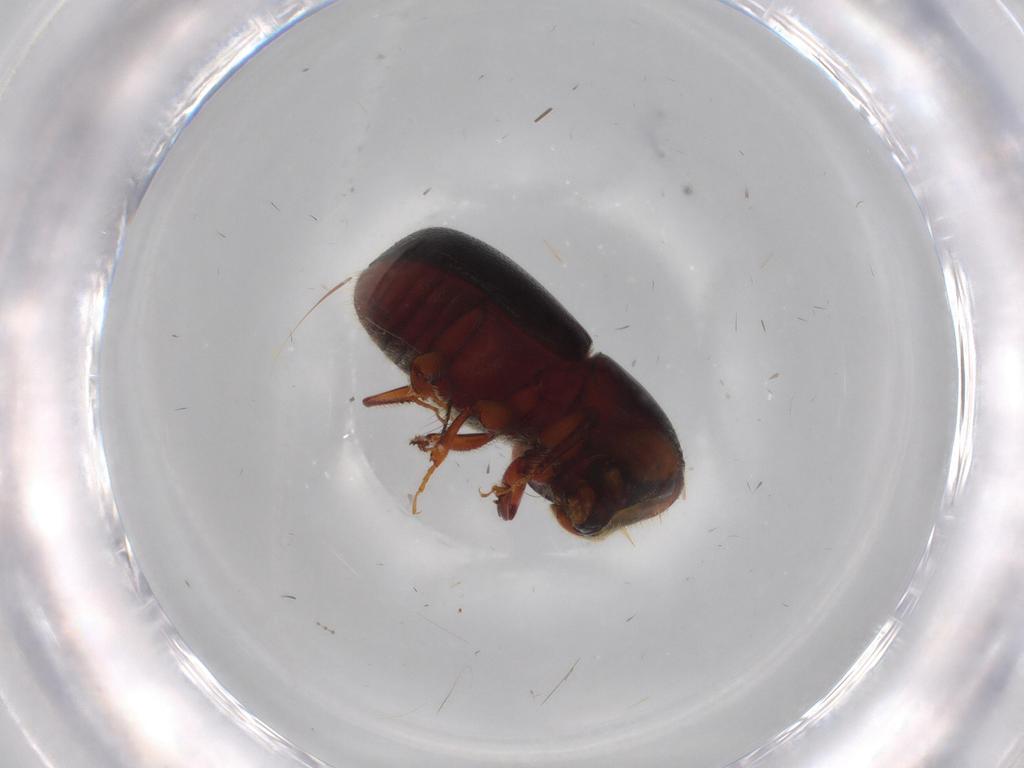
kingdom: Animalia
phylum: Arthropoda
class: Insecta
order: Coleoptera
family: Curculionidae
